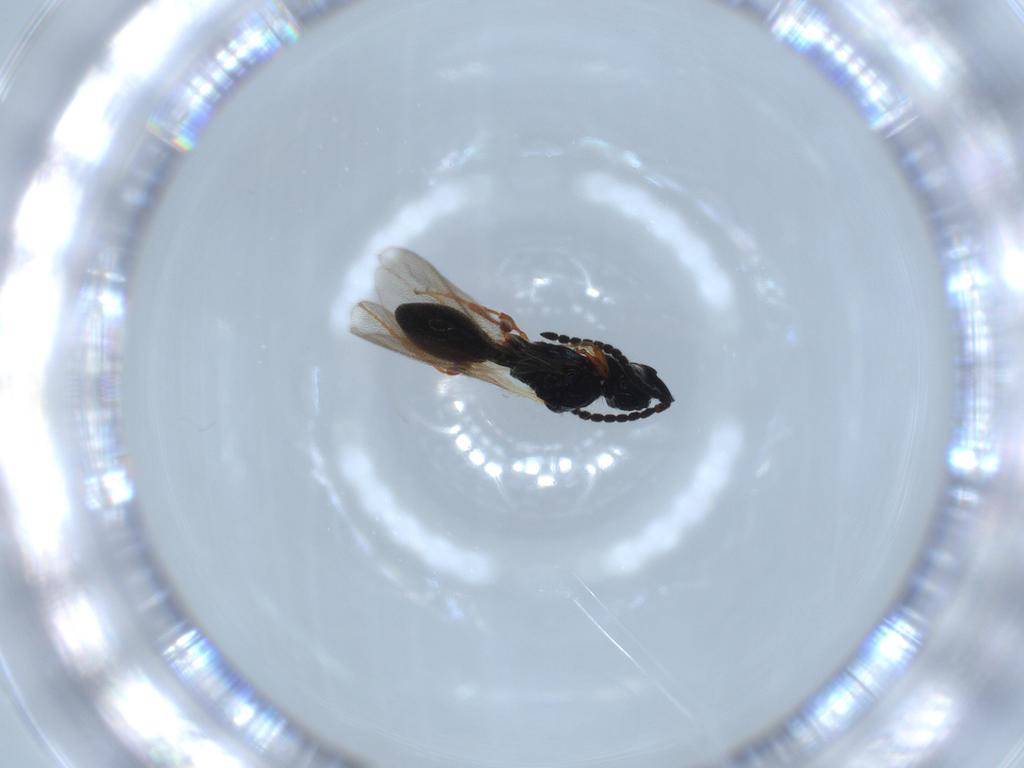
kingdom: Animalia
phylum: Arthropoda
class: Insecta
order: Hymenoptera
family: Diapriidae
